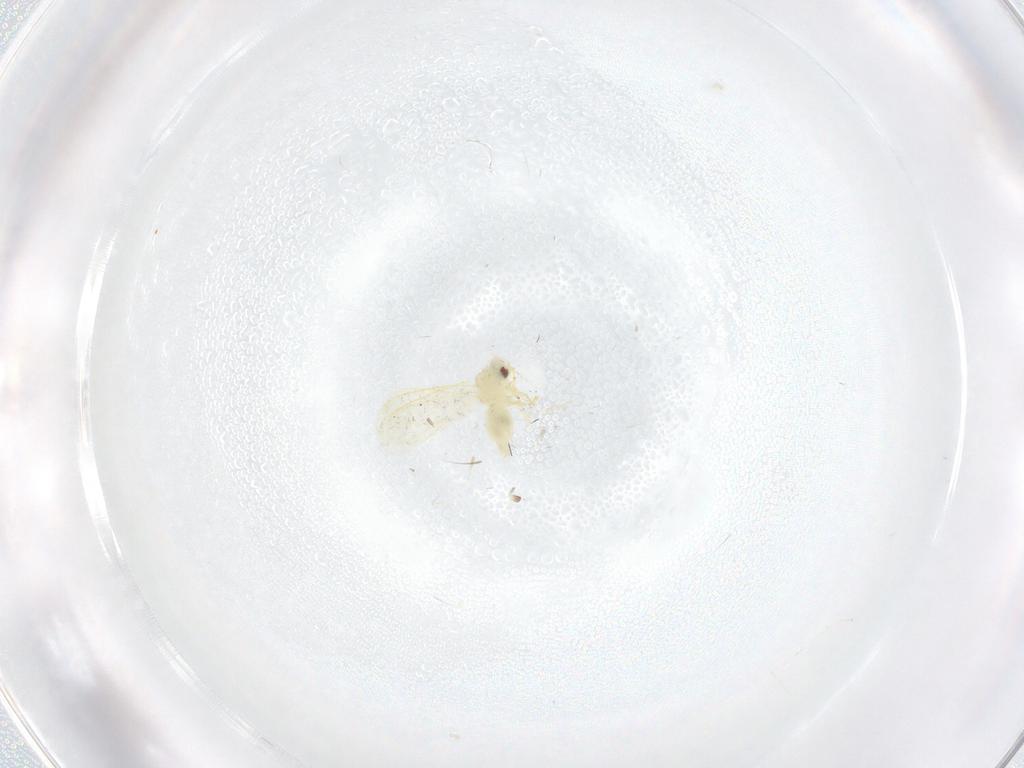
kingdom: Animalia
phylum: Arthropoda
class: Insecta
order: Hemiptera
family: Aleyrodidae
